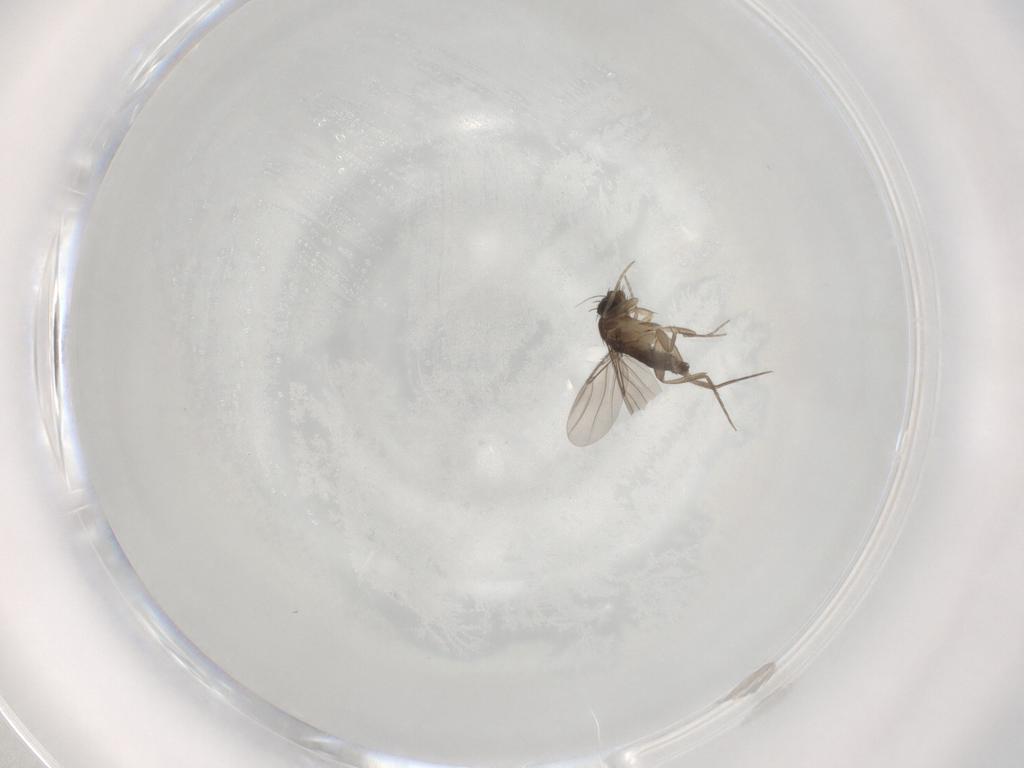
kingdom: Animalia
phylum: Arthropoda
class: Insecta
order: Diptera
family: Phoridae
